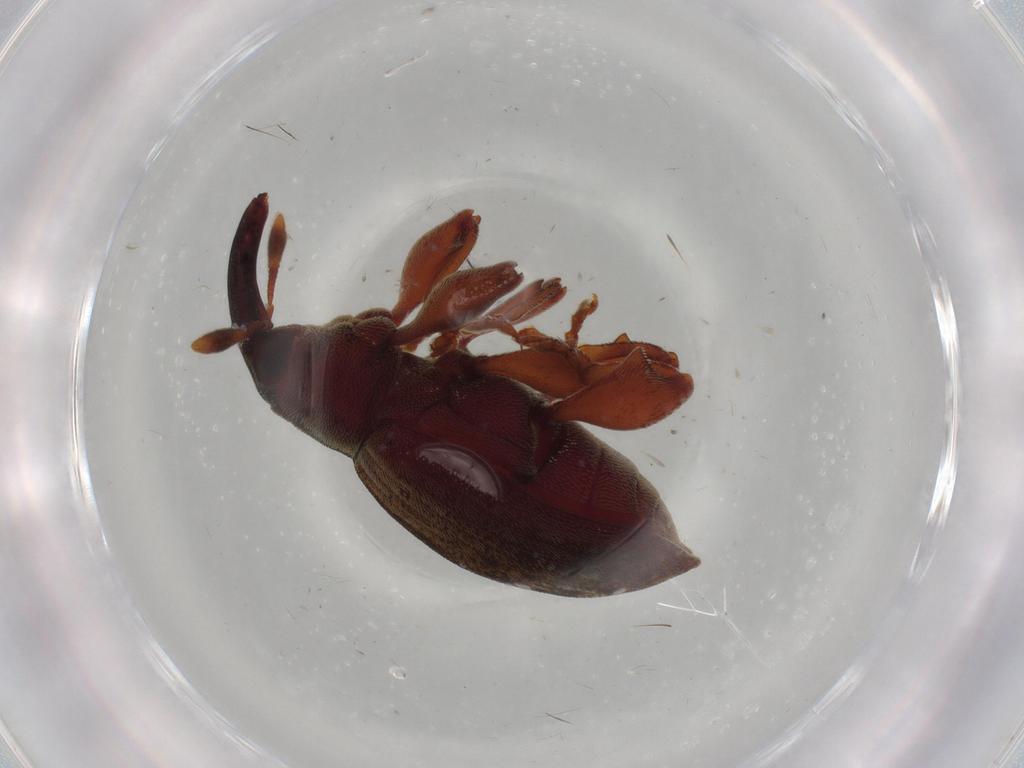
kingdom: Animalia
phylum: Arthropoda
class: Insecta
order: Coleoptera
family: Curculionidae
